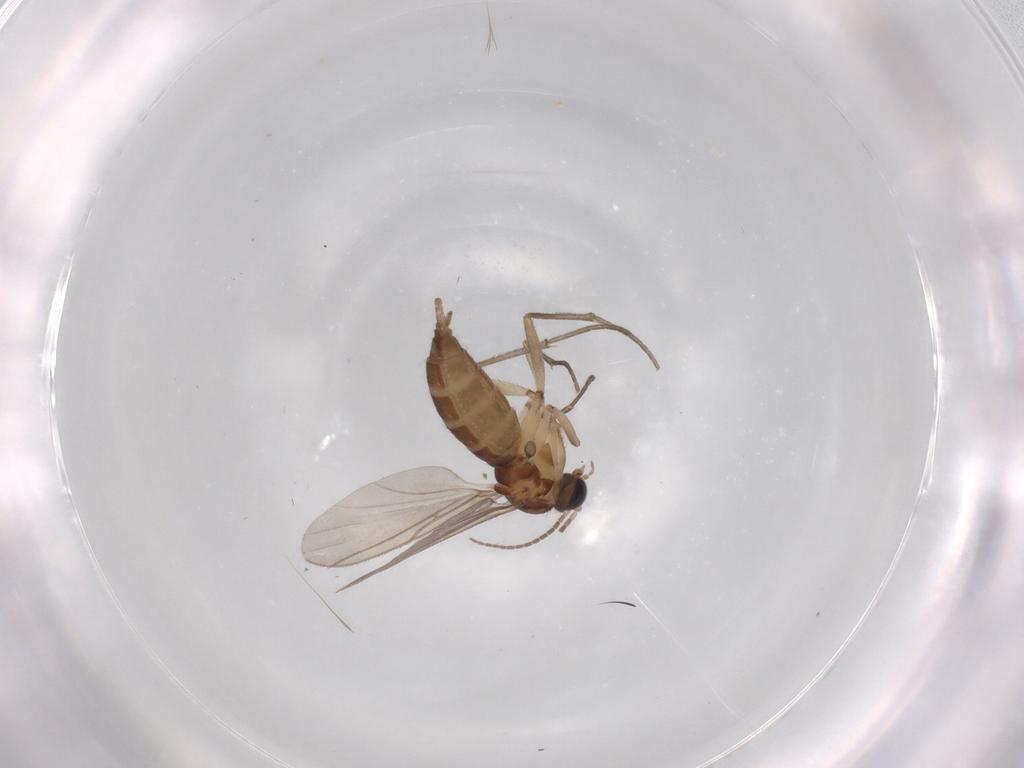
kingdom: Animalia
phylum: Arthropoda
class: Insecta
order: Diptera
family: Sciaridae
